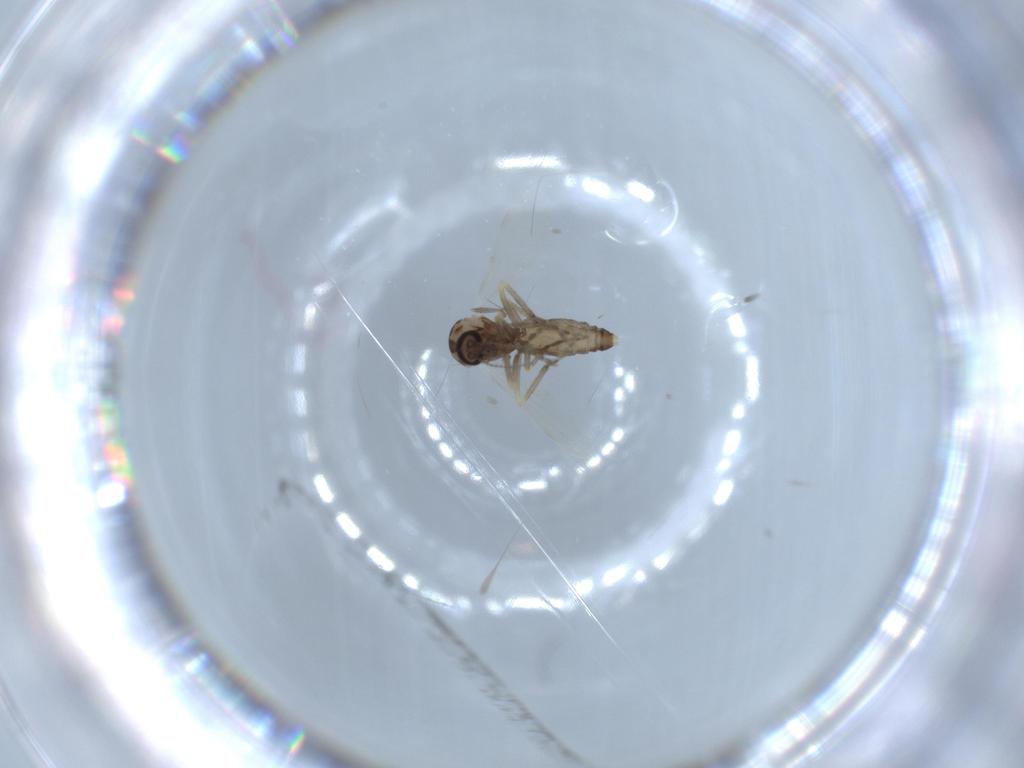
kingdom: Animalia
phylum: Arthropoda
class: Insecta
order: Diptera
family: Ceratopogonidae
